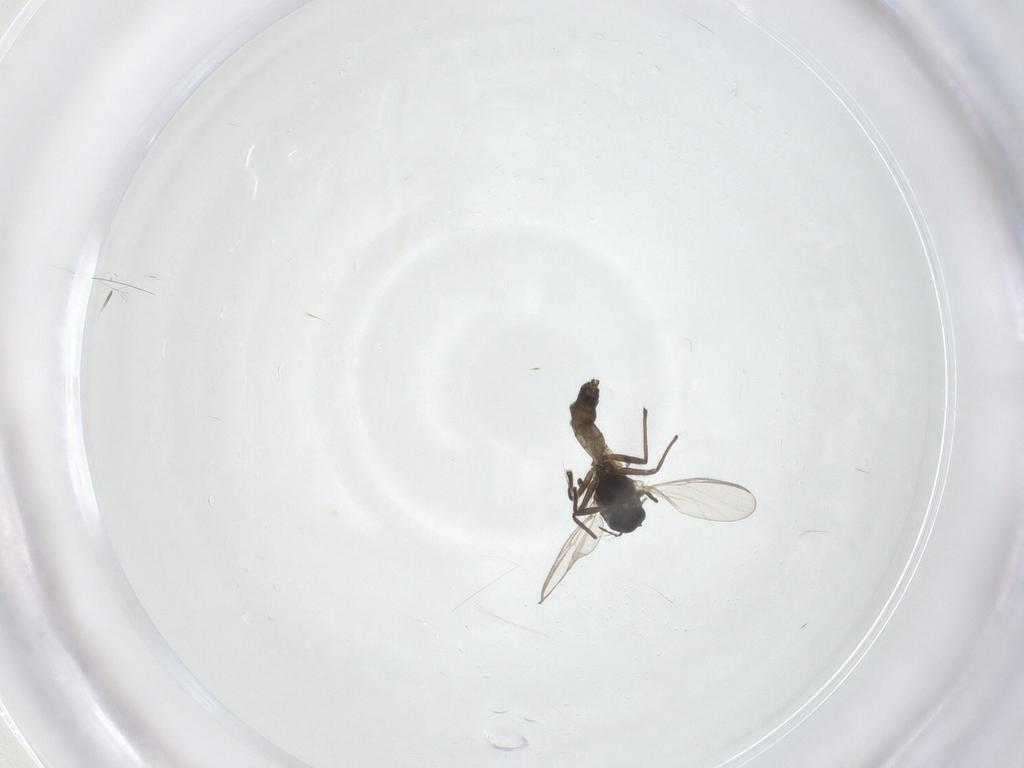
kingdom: Animalia
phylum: Arthropoda
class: Insecta
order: Diptera
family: Chironomidae
